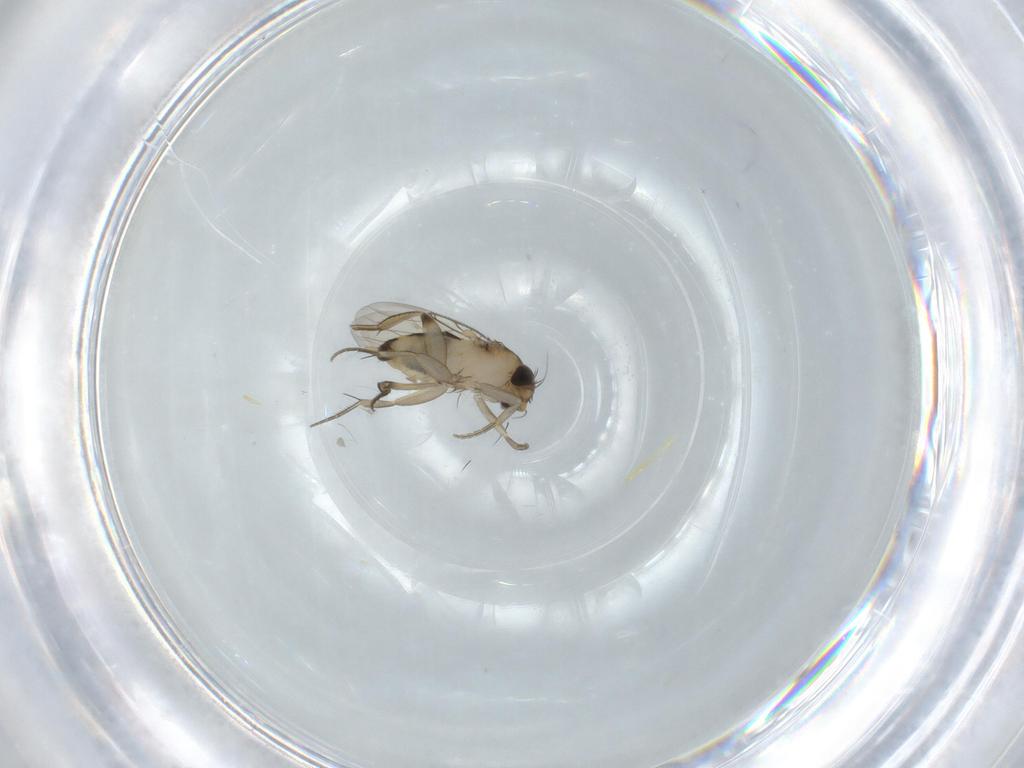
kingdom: Animalia
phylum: Arthropoda
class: Insecta
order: Diptera
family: Phoridae
